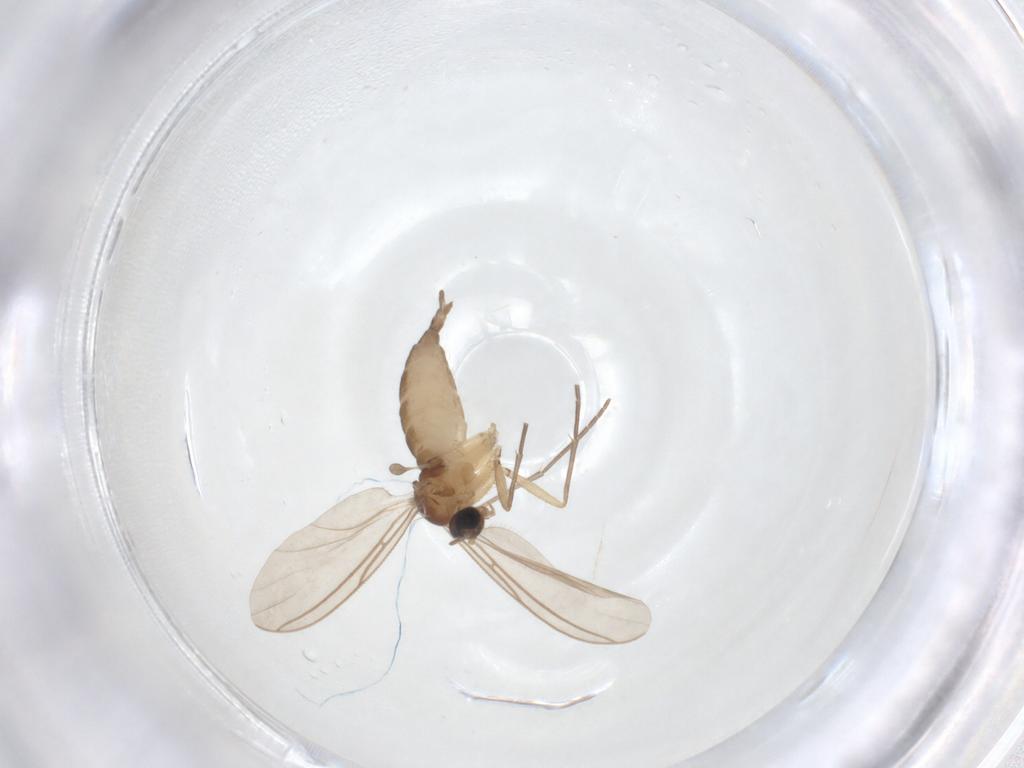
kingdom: Animalia
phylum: Arthropoda
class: Insecta
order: Diptera
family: Sciaridae
